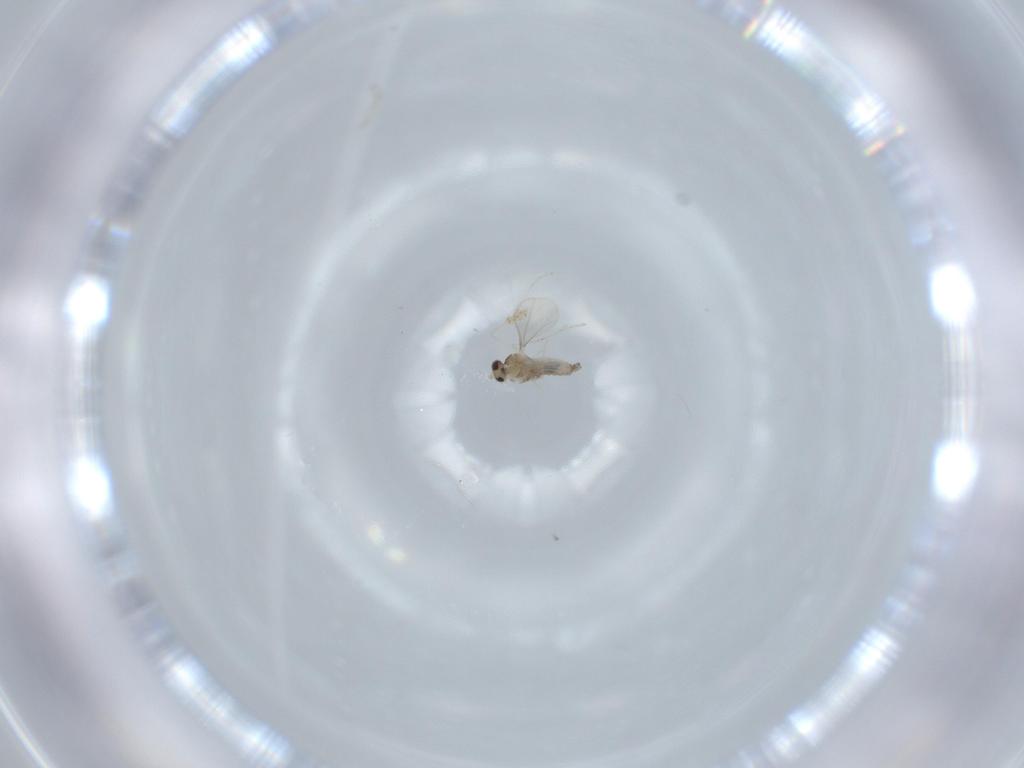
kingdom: Animalia
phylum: Arthropoda
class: Insecta
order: Diptera
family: Cecidomyiidae
